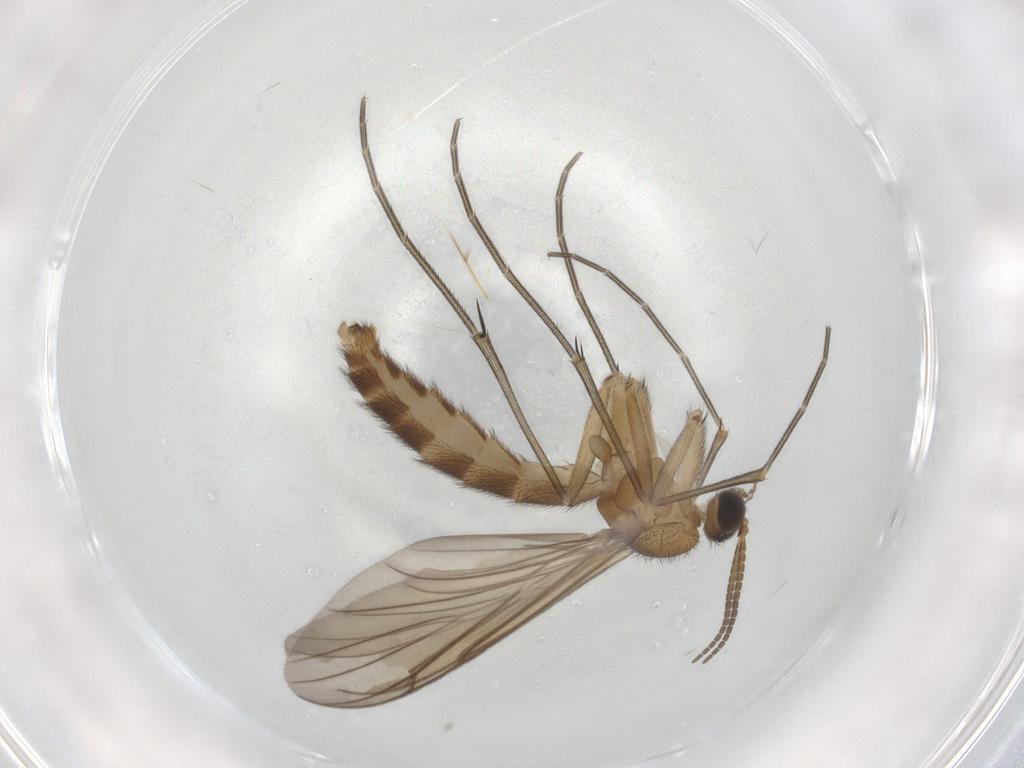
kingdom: Animalia
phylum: Arthropoda
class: Insecta
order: Diptera
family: Keroplatidae
